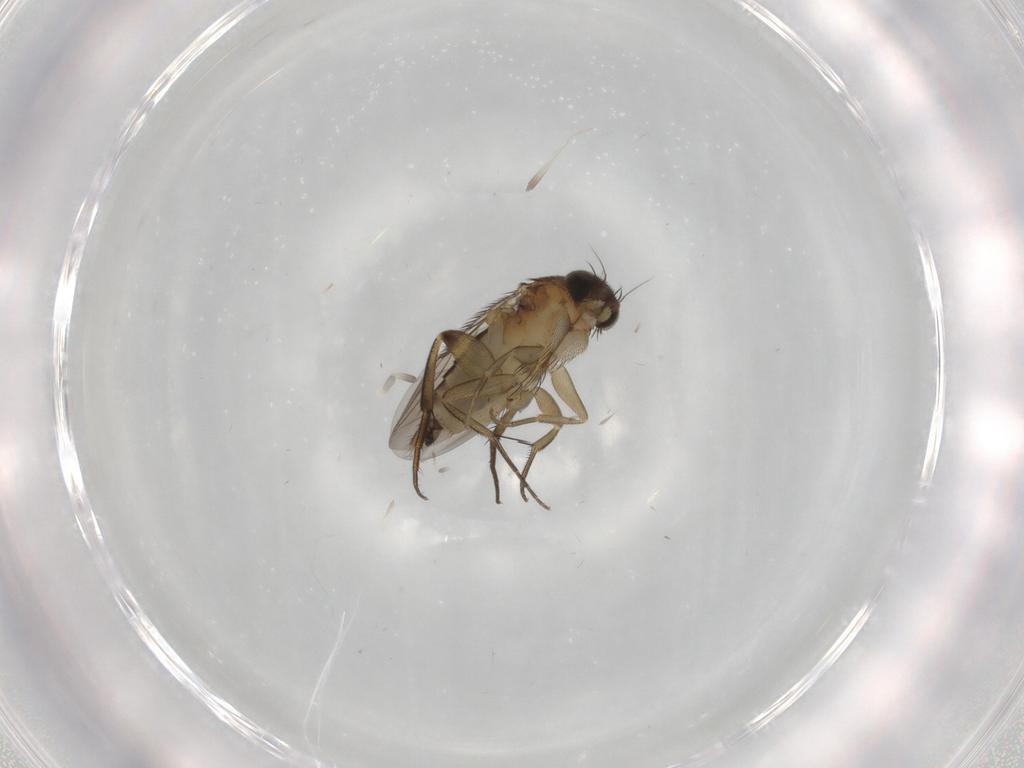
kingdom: Animalia
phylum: Arthropoda
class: Insecta
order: Diptera
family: Phoridae
